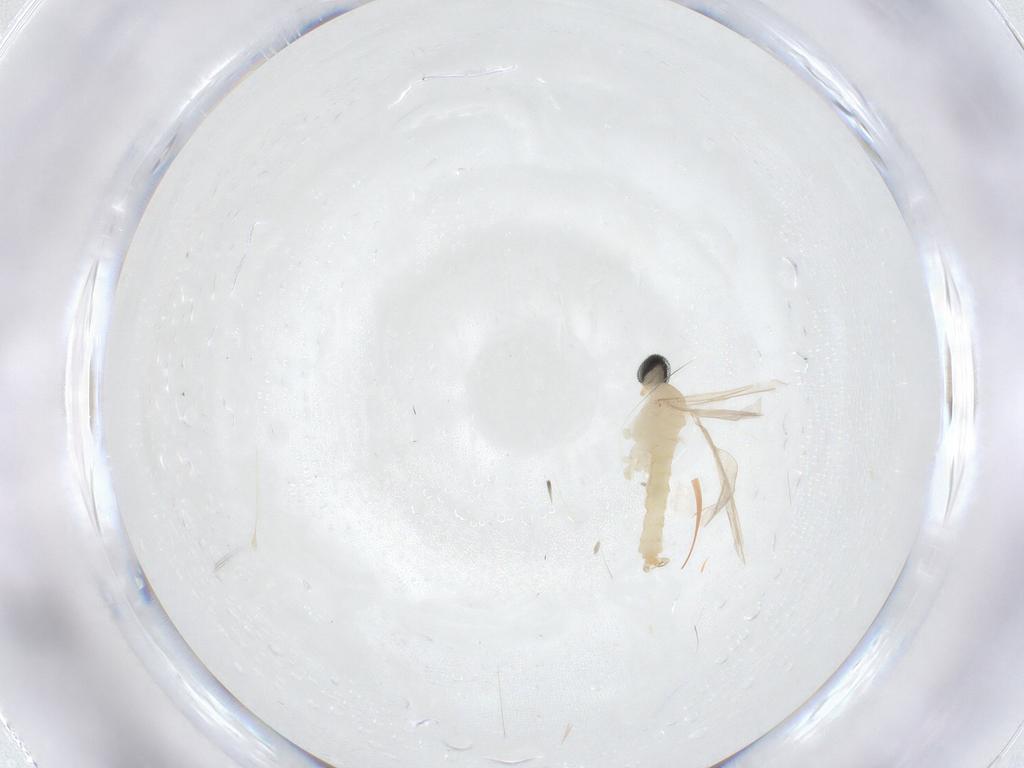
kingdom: Animalia
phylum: Arthropoda
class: Insecta
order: Diptera
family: Cecidomyiidae
